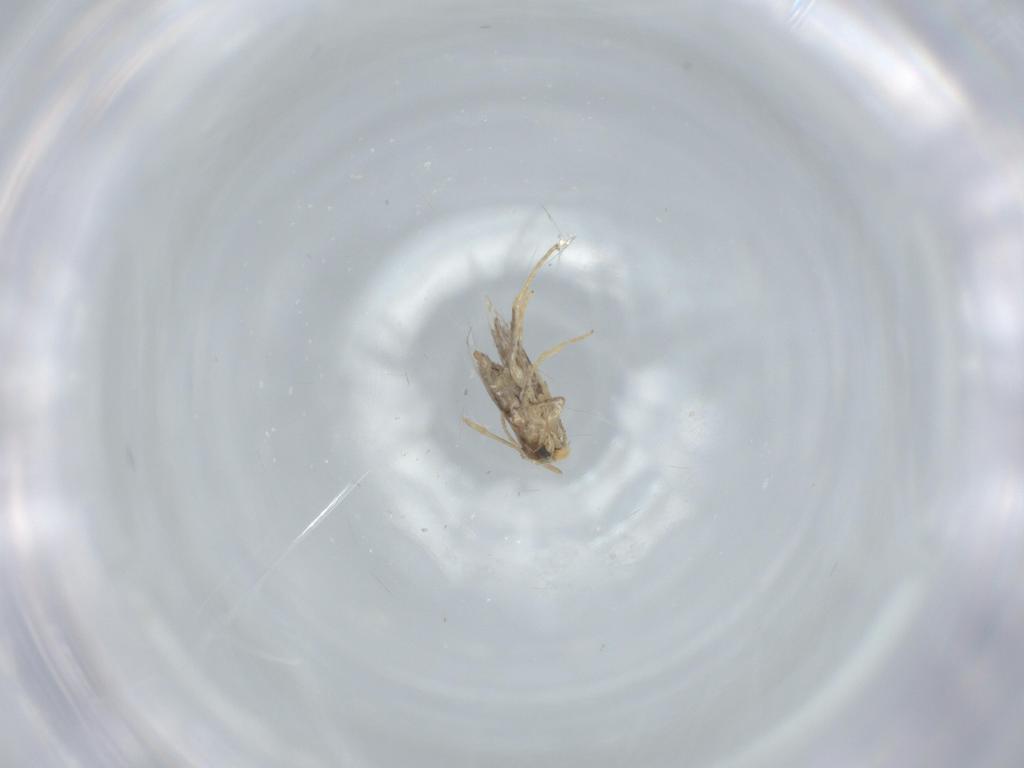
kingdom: Animalia
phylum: Arthropoda
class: Insecta
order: Lepidoptera
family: Nepticulidae
